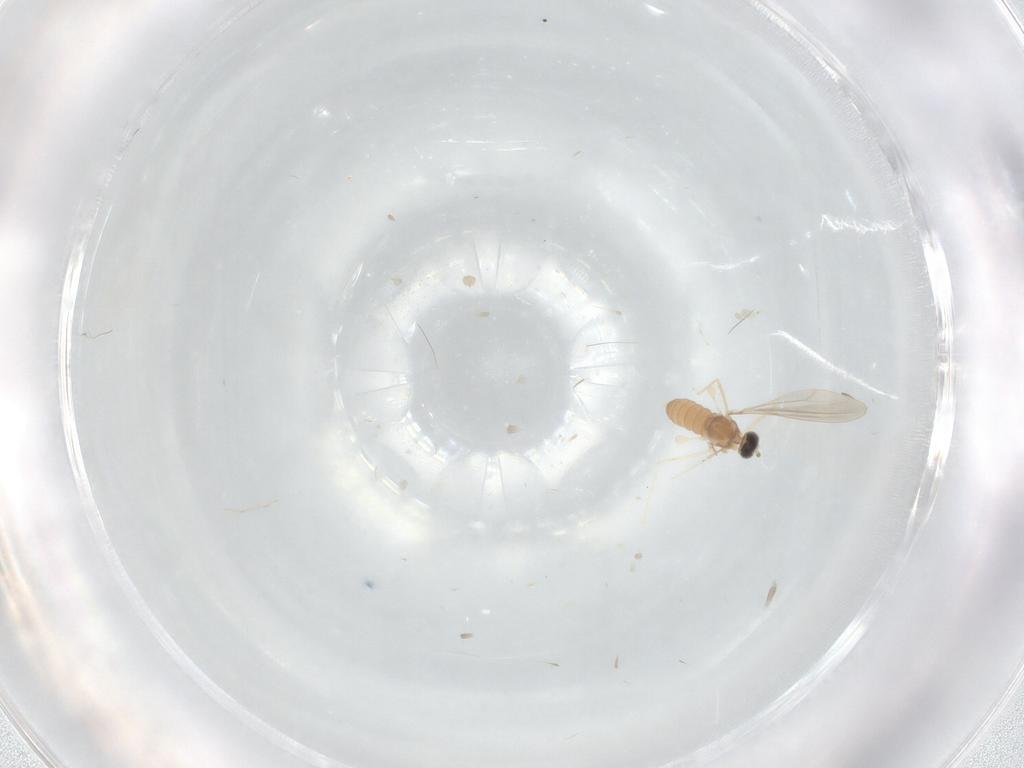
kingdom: Animalia
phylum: Arthropoda
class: Insecta
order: Diptera
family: Cecidomyiidae
